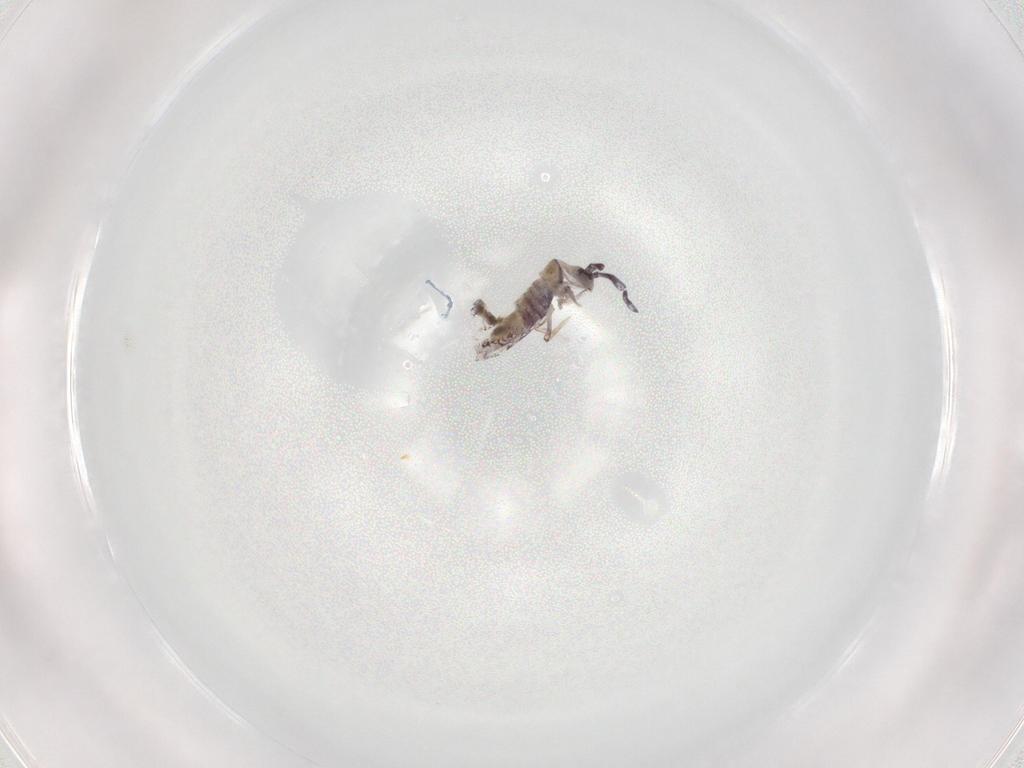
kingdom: Animalia
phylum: Arthropoda
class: Collembola
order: Poduromorpha
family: Hypogastruridae
